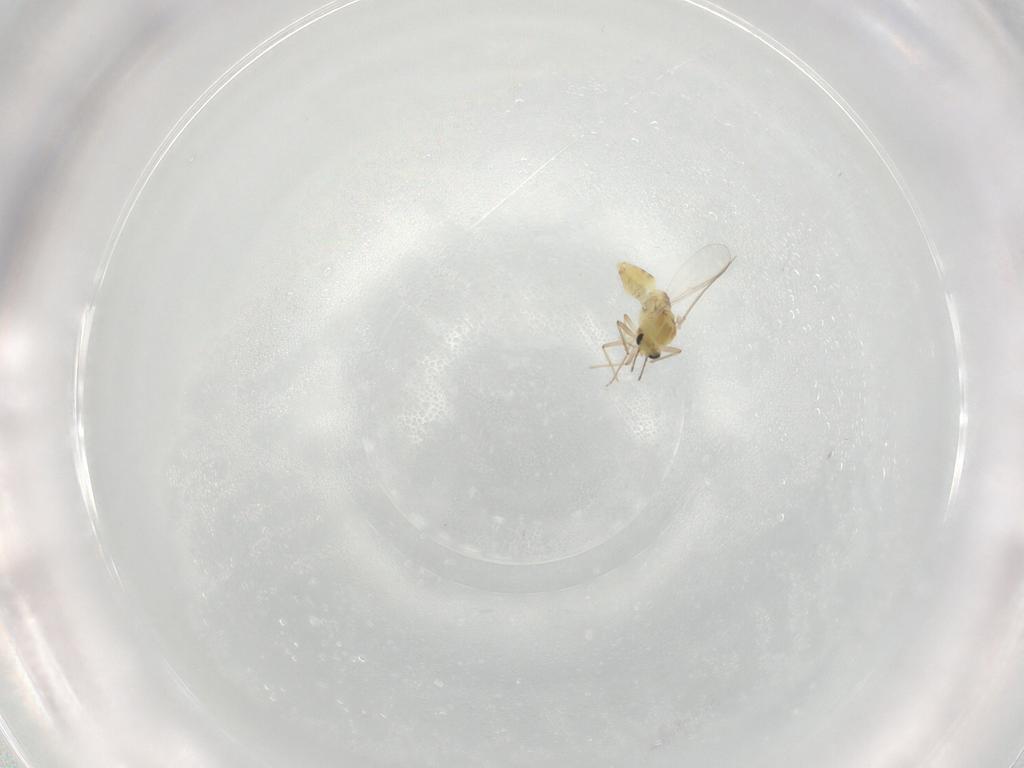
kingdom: Animalia
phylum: Arthropoda
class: Insecta
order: Diptera
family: Chironomidae
